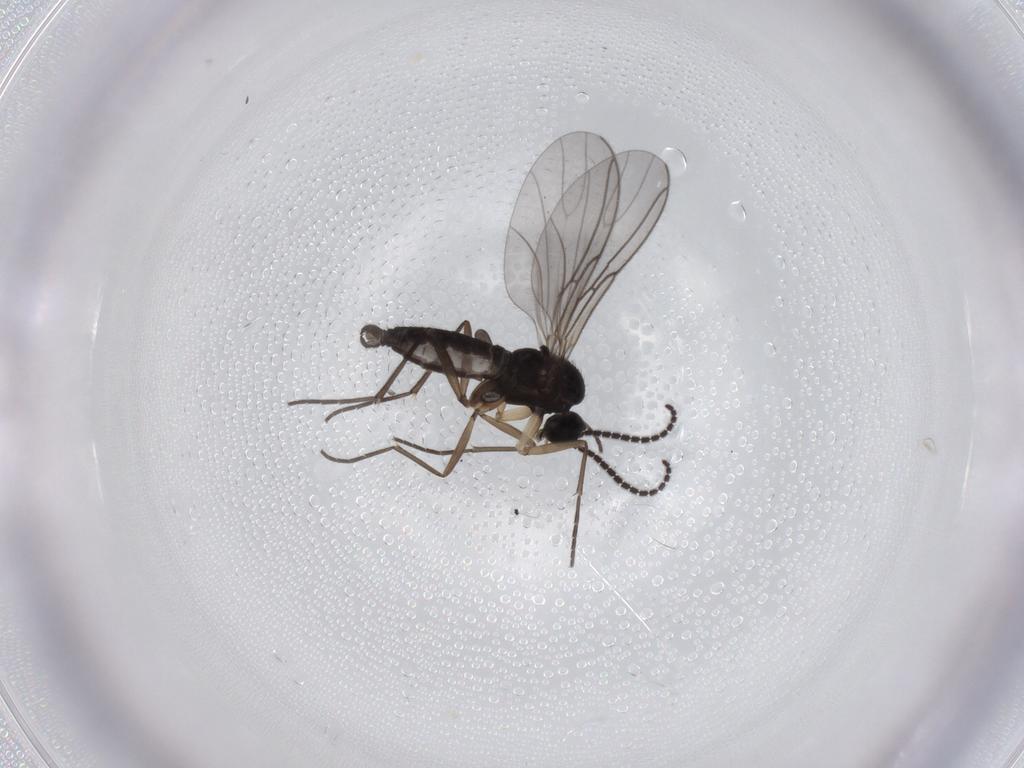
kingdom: Animalia
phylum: Arthropoda
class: Insecta
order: Diptera
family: Sciaridae
